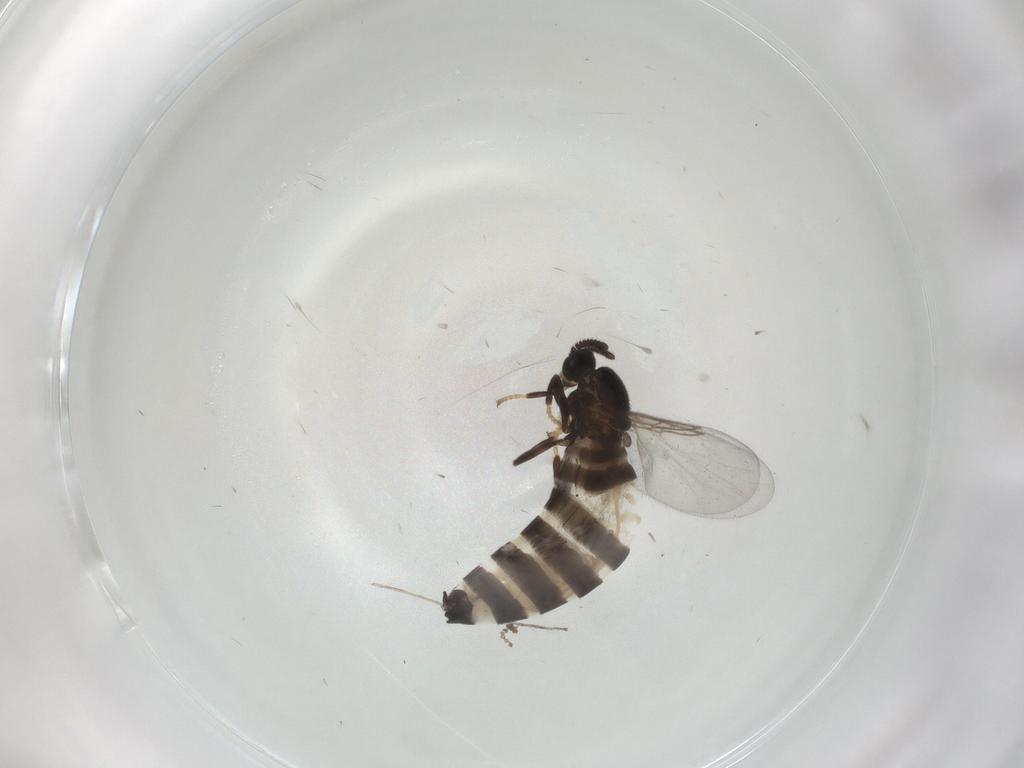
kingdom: Animalia
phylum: Arthropoda
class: Insecta
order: Diptera
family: Scatopsidae
